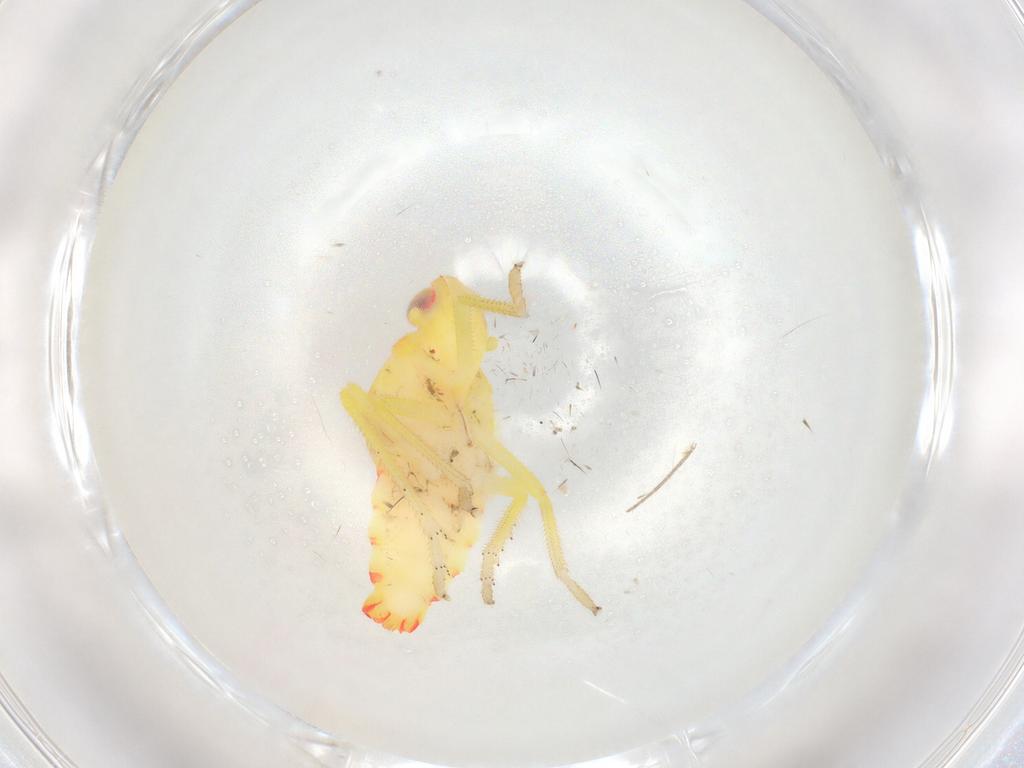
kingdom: Animalia
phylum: Arthropoda
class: Insecta
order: Hemiptera
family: Tropiduchidae
